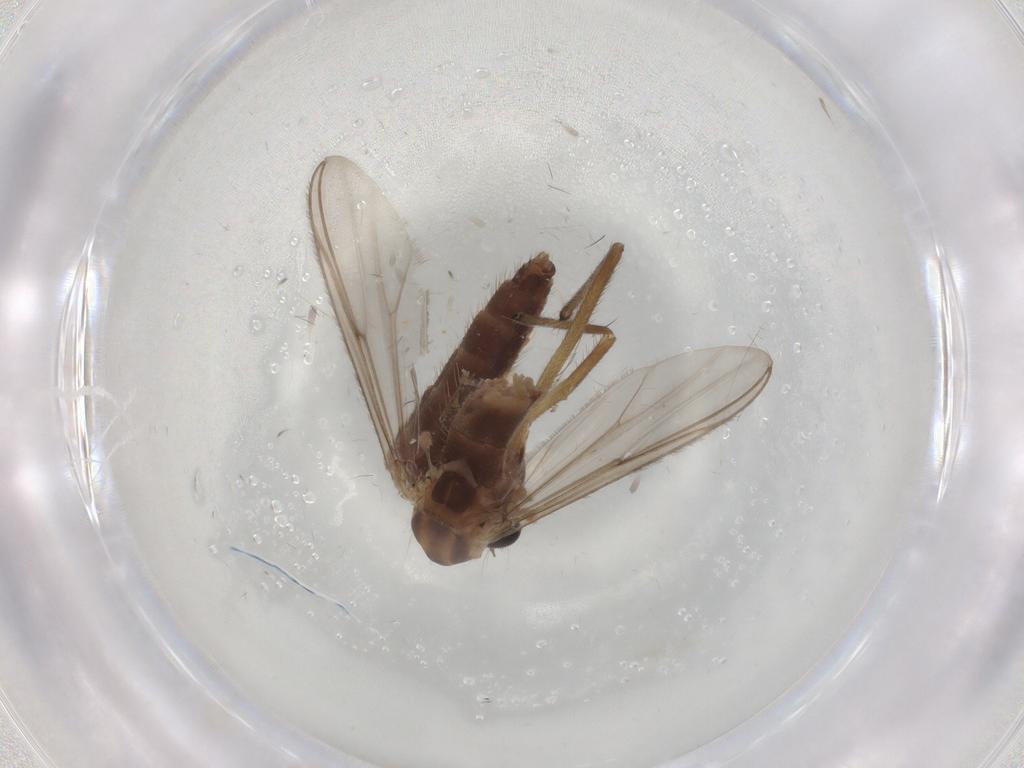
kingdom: Animalia
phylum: Arthropoda
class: Insecta
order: Diptera
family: Chironomidae
